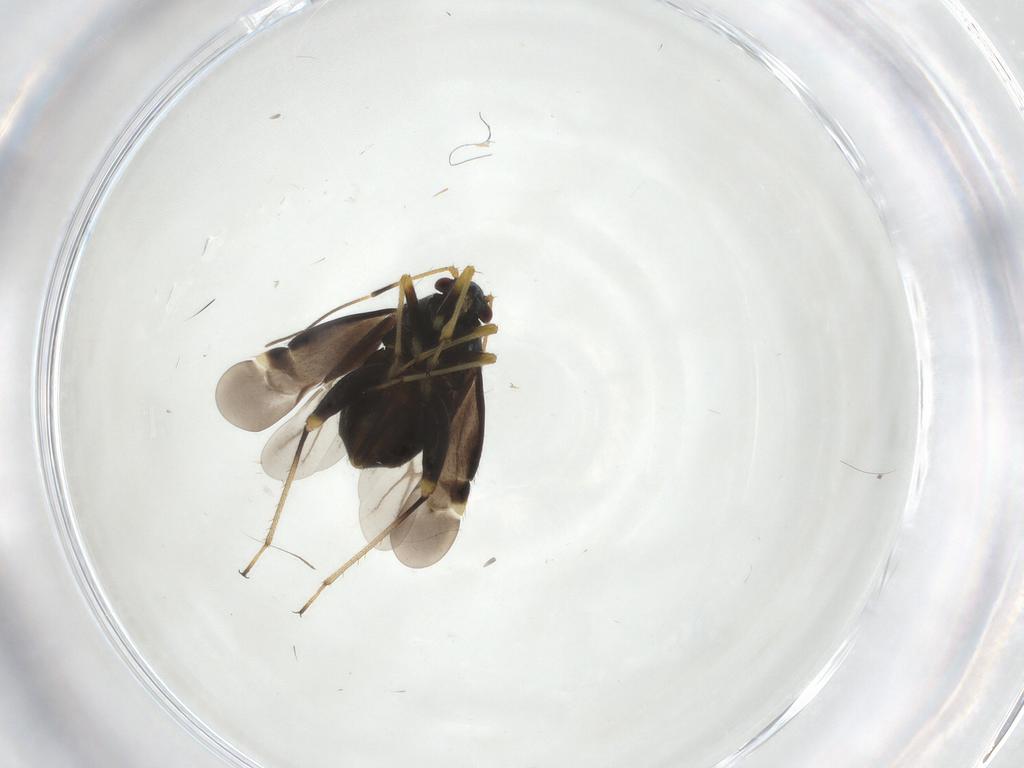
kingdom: Animalia
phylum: Arthropoda
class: Insecta
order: Hemiptera
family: Miridae
